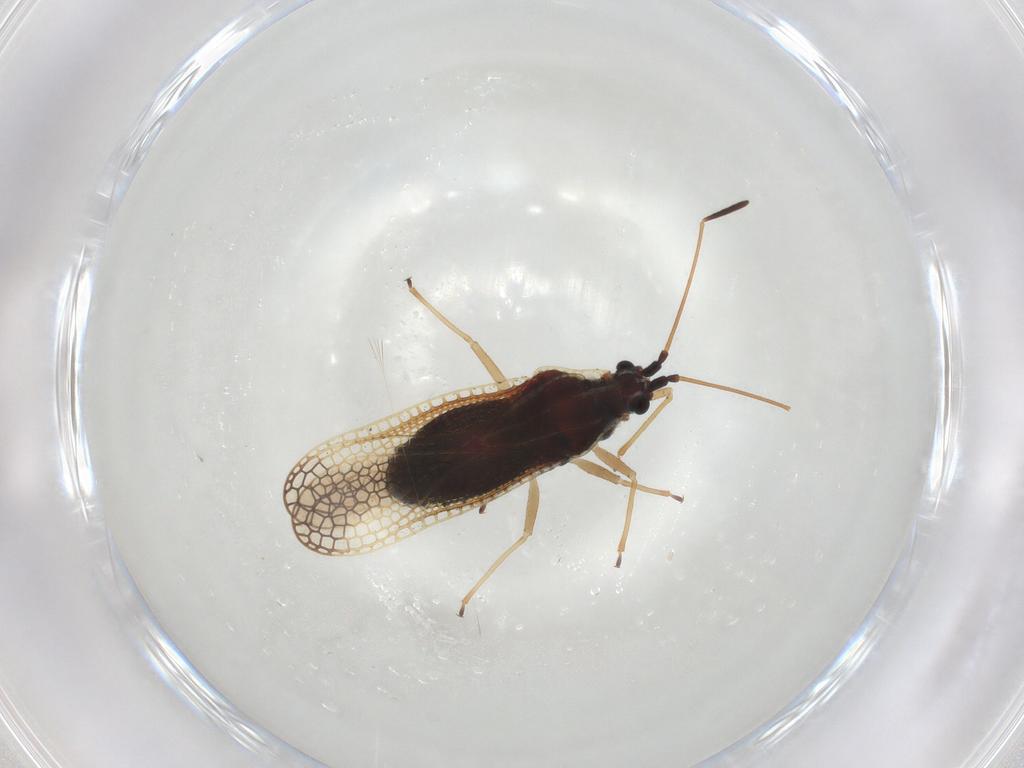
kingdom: Animalia
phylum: Arthropoda
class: Insecta
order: Hemiptera
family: Tingidae
